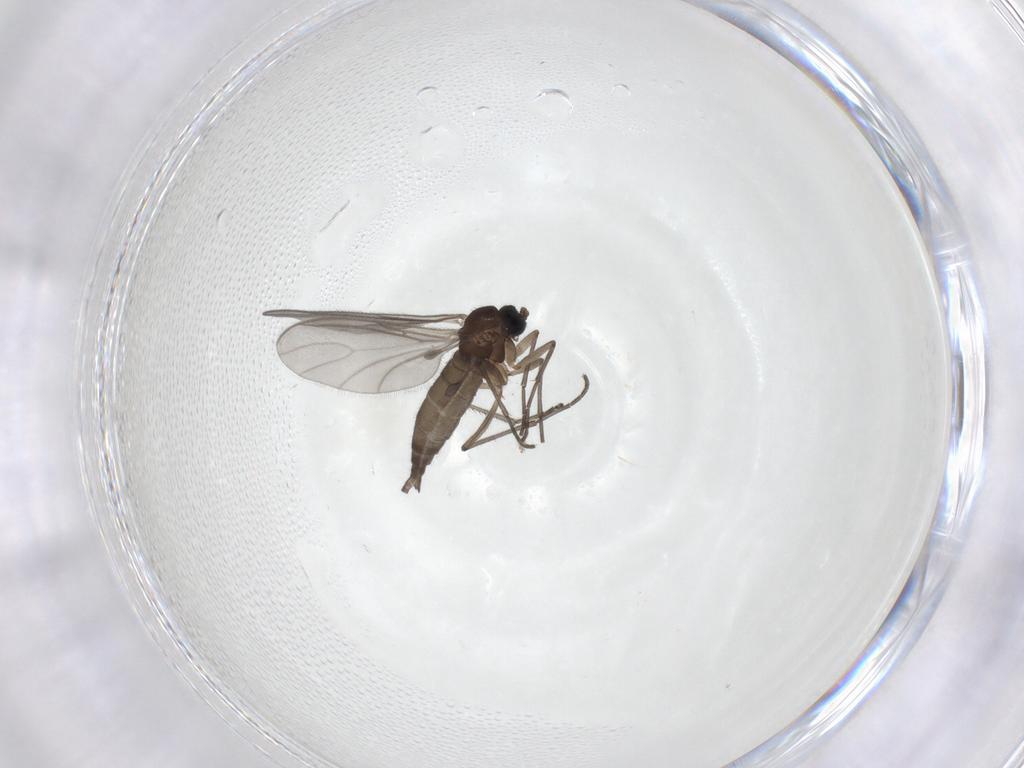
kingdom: Animalia
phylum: Arthropoda
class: Insecta
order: Diptera
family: Sciaridae
